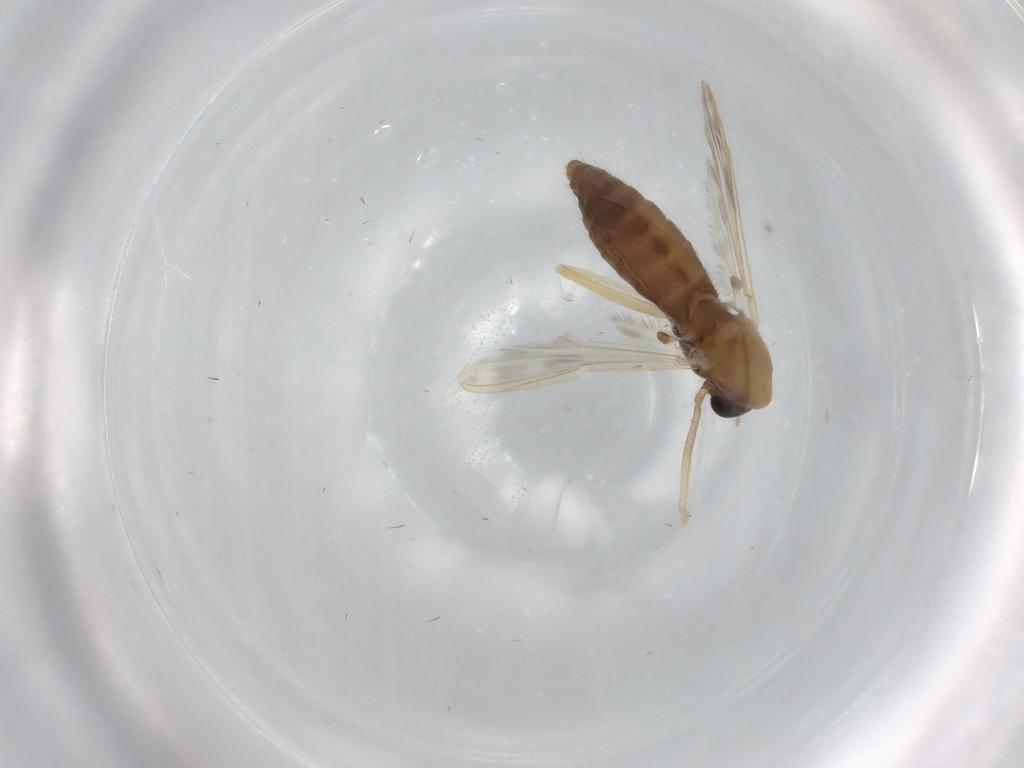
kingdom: Animalia
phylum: Arthropoda
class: Insecta
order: Diptera
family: Chironomidae
